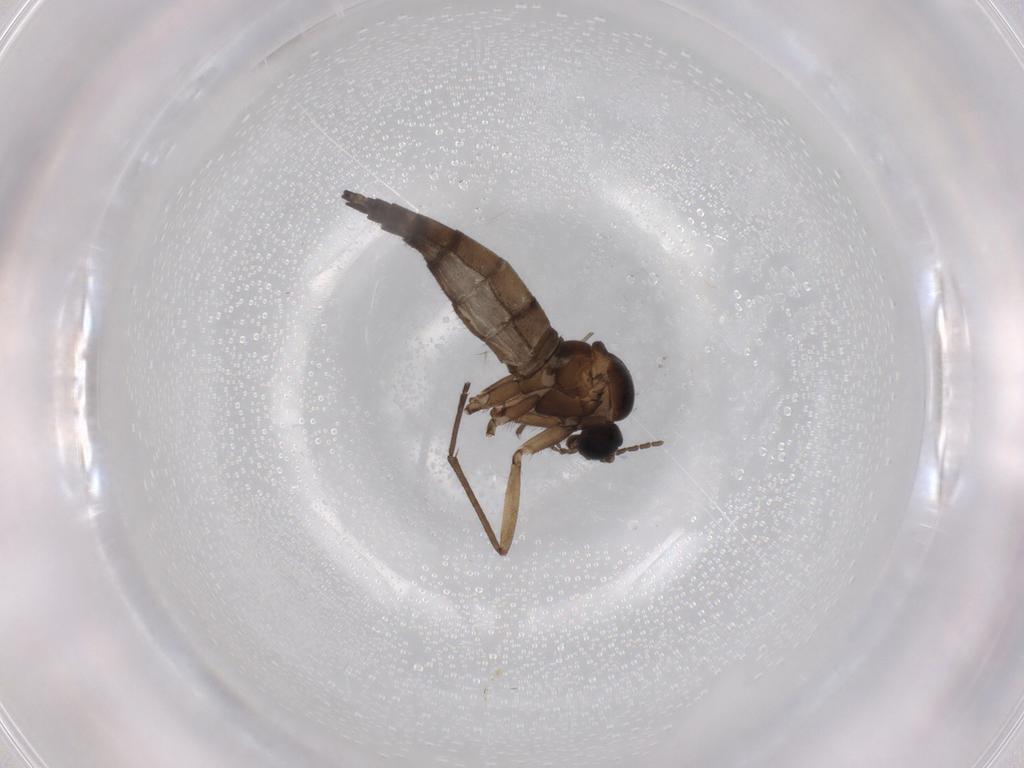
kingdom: Animalia
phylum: Arthropoda
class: Insecta
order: Diptera
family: Sciaridae
